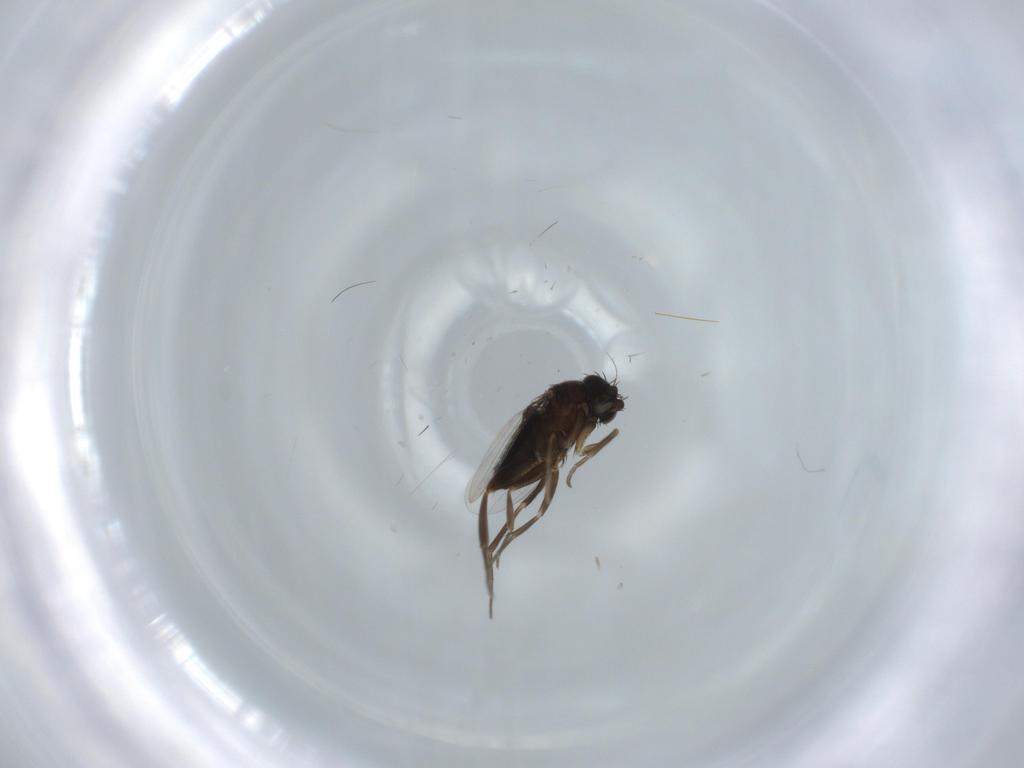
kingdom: Animalia
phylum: Arthropoda
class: Insecta
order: Diptera
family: Phoridae
